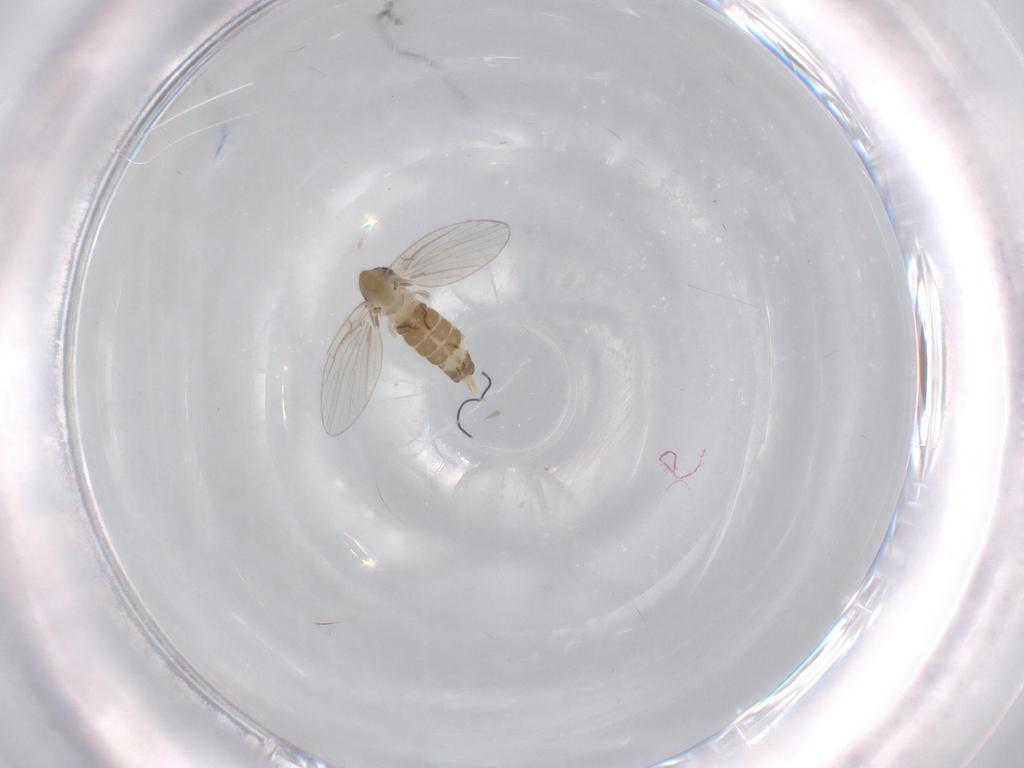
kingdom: Animalia
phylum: Arthropoda
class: Insecta
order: Diptera
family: Psychodidae
